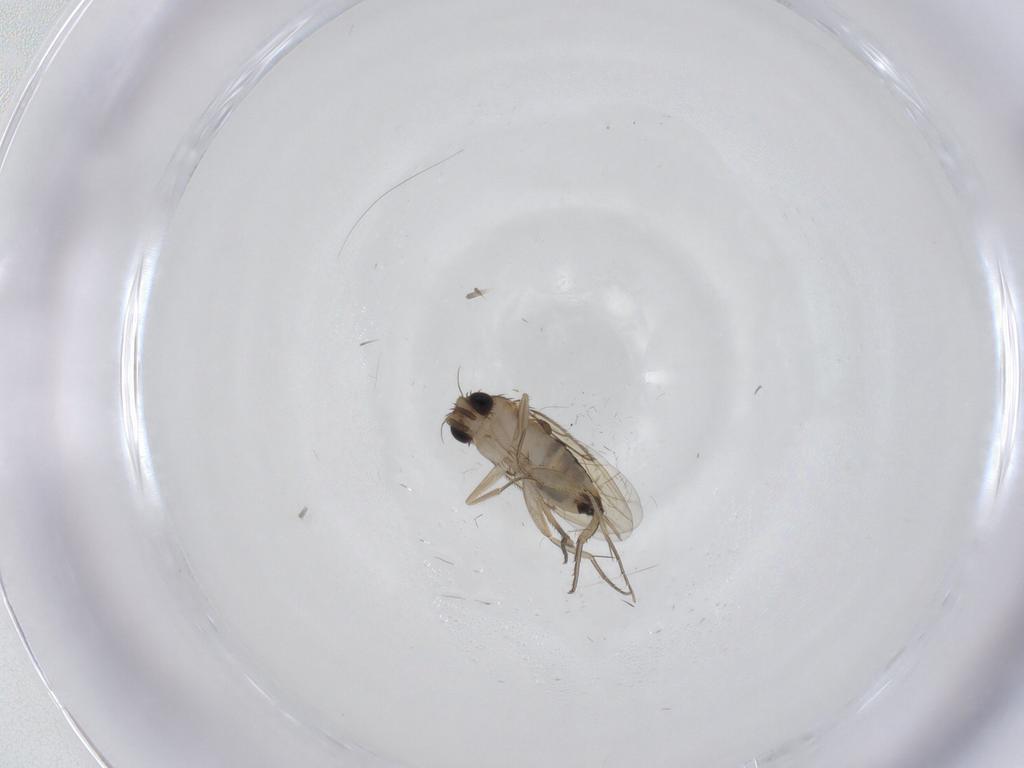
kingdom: Animalia
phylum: Arthropoda
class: Insecta
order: Diptera
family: Phoridae
